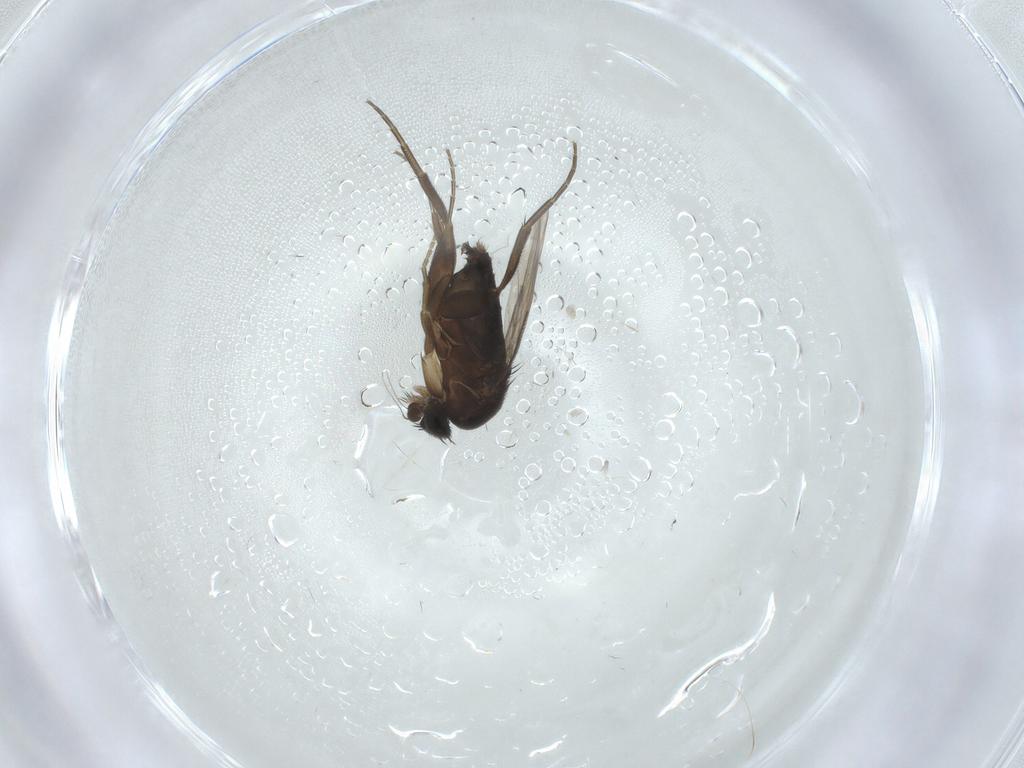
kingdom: Animalia
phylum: Arthropoda
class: Insecta
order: Diptera
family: Phoridae
